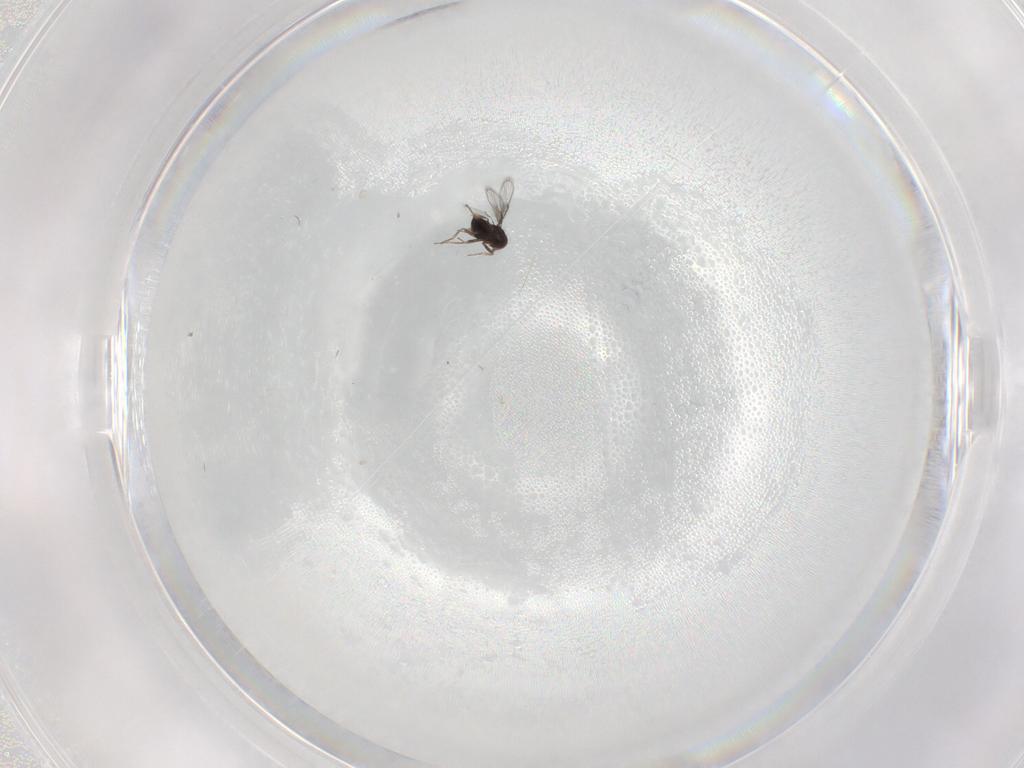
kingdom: Animalia
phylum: Arthropoda
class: Insecta
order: Hymenoptera
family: Trichogrammatidae
